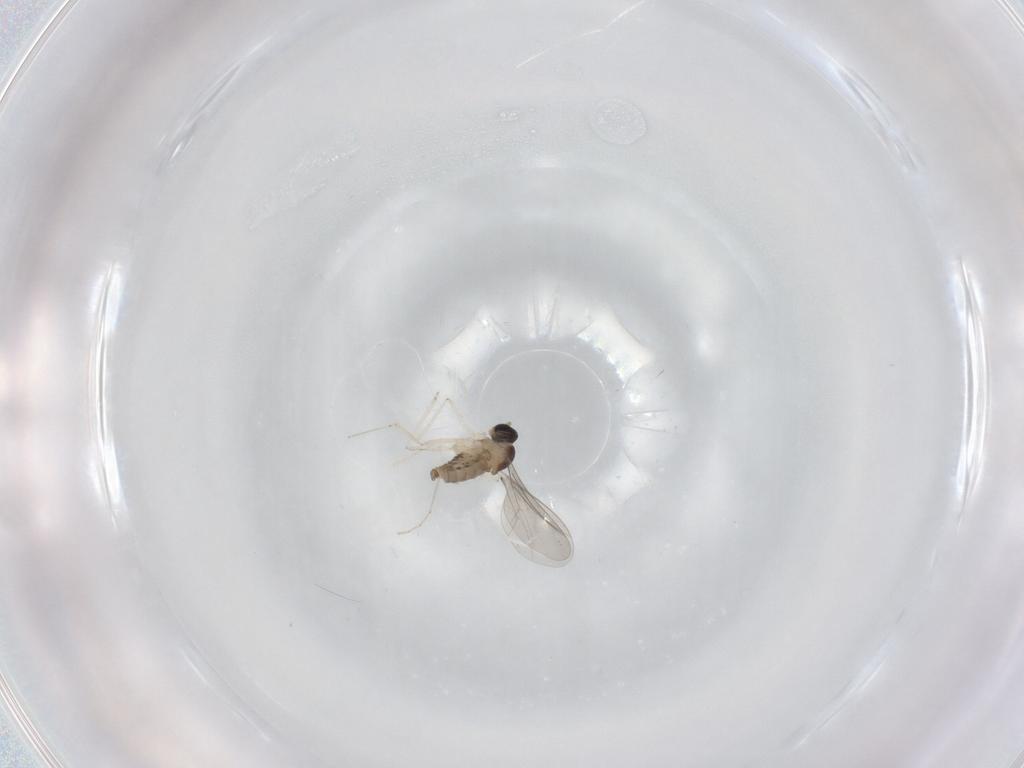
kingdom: Animalia
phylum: Arthropoda
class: Insecta
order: Diptera
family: Cecidomyiidae
